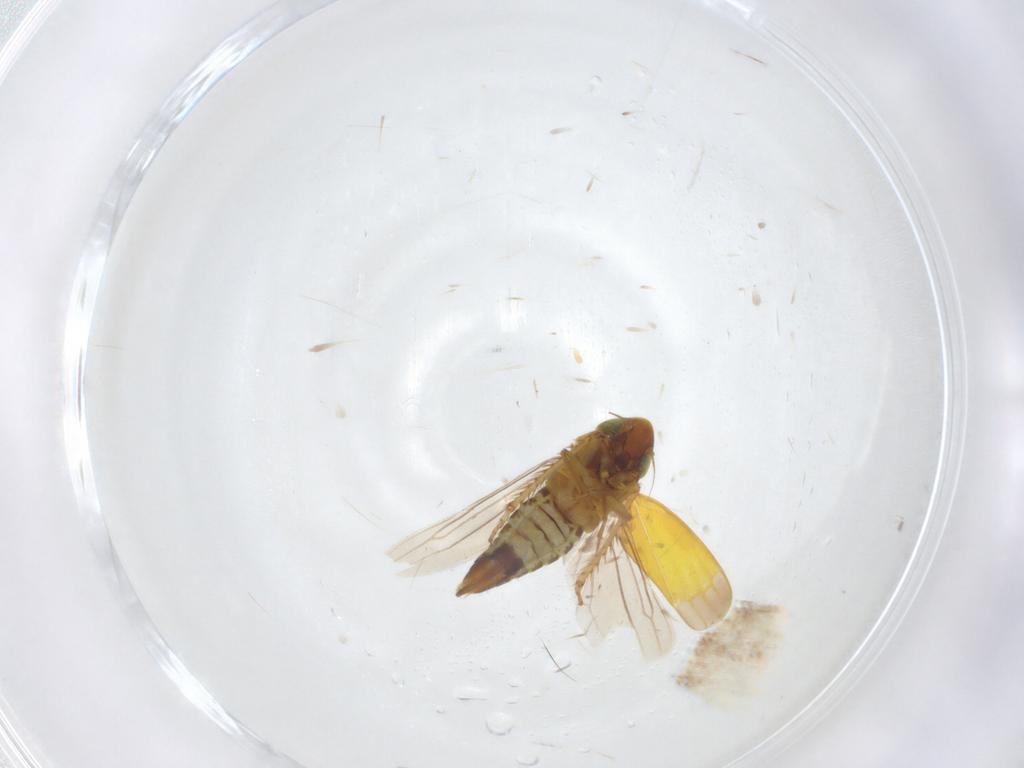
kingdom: Animalia
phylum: Arthropoda
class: Insecta
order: Hemiptera
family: Cicadellidae
